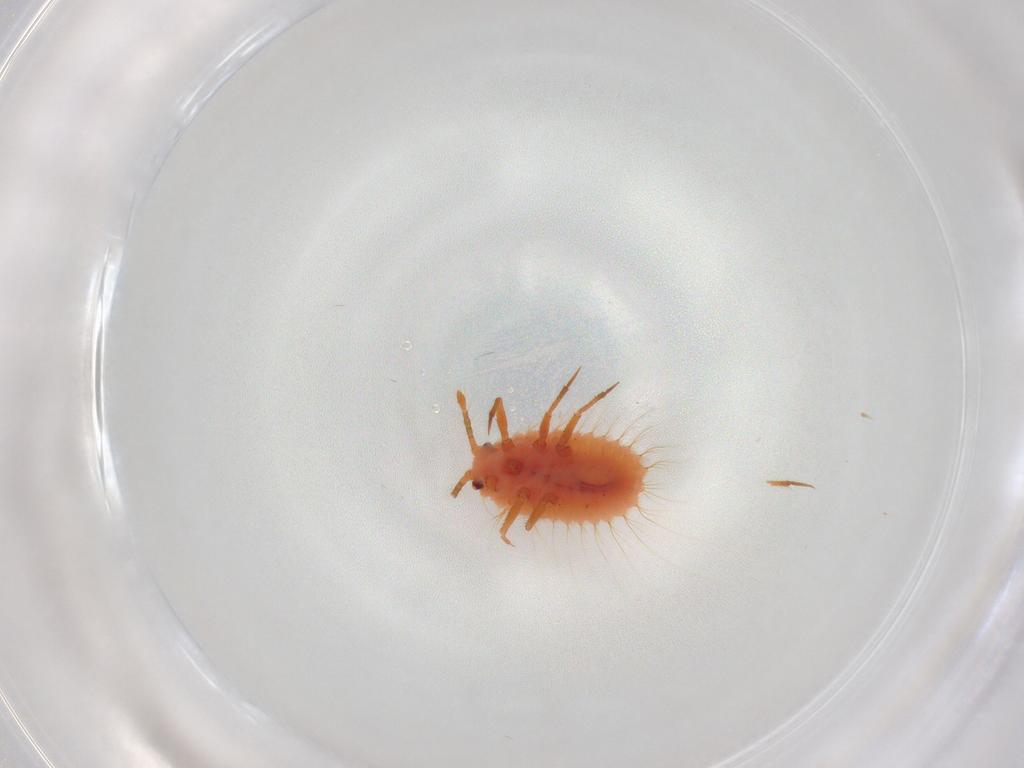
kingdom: Animalia
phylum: Arthropoda
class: Insecta
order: Hemiptera
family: Coccoidea_incertae_sedis
